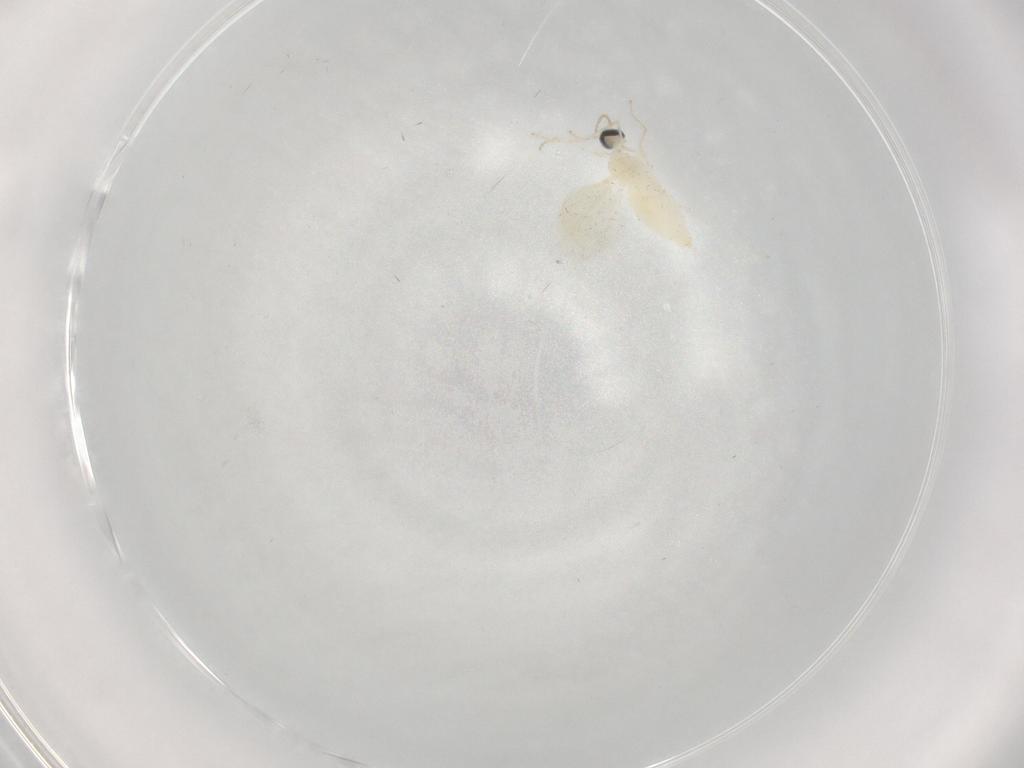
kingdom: Animalia
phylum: Arthropoda
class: Insecta
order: Diptera
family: Cecidomyiidae
